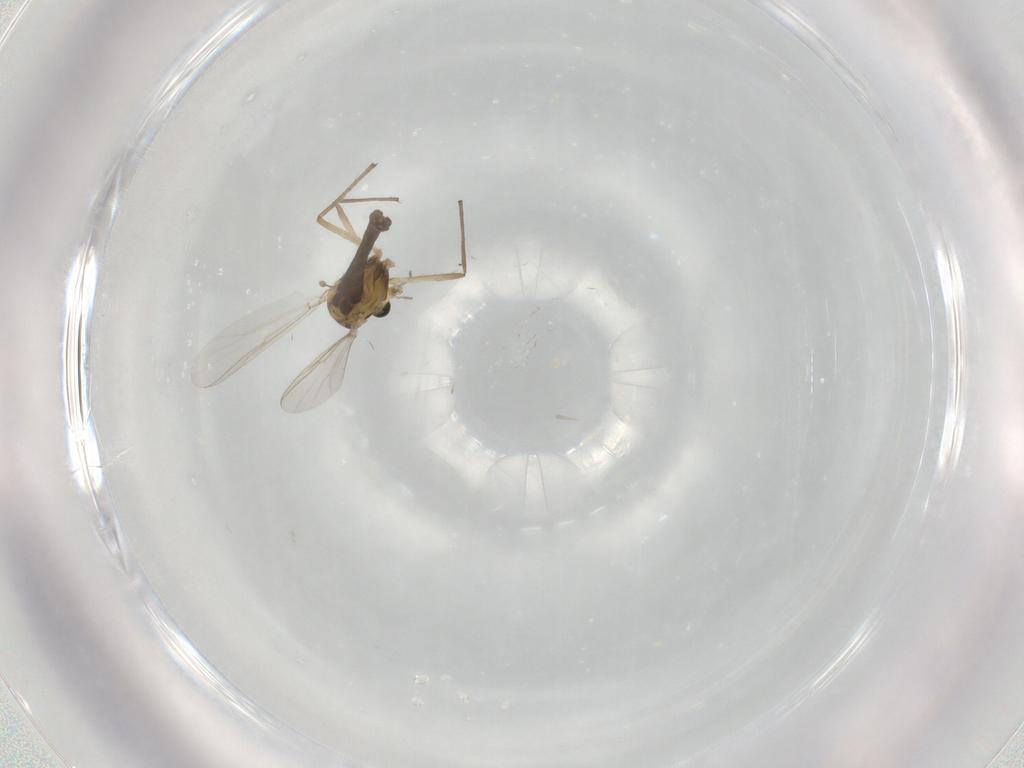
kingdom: Animalia
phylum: Arthropoda
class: Insecta
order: Diptera
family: Chironomidae
